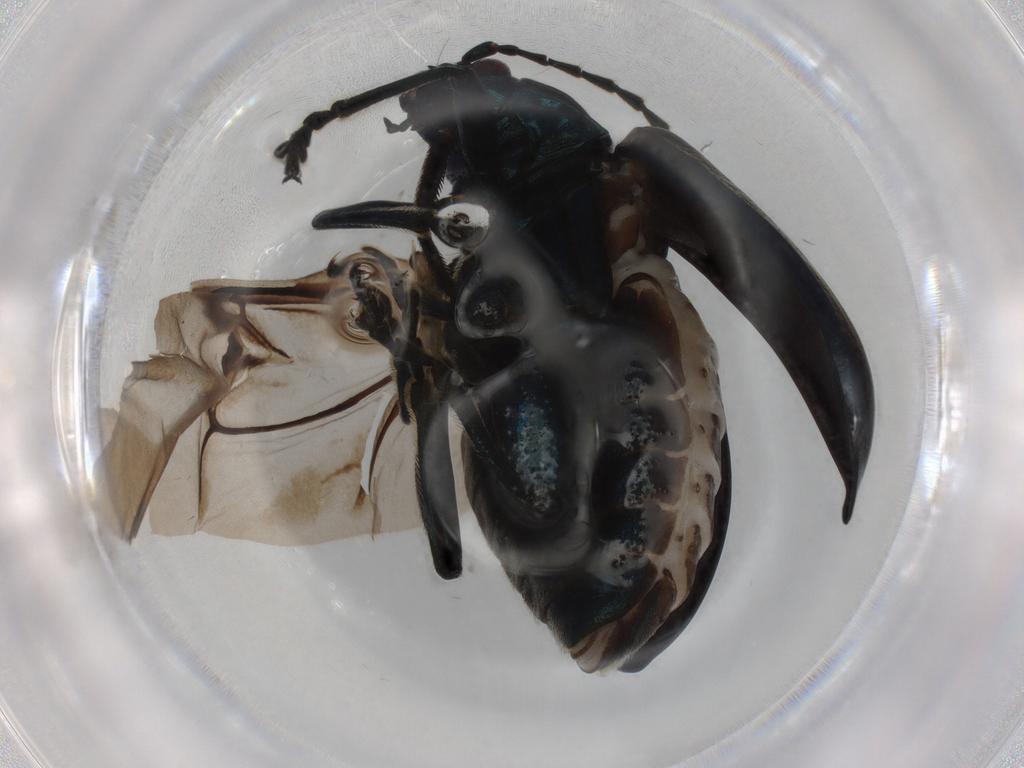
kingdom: Animalia
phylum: Arthropoda
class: Insecta
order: Coleoptera
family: Chrysomelidae
